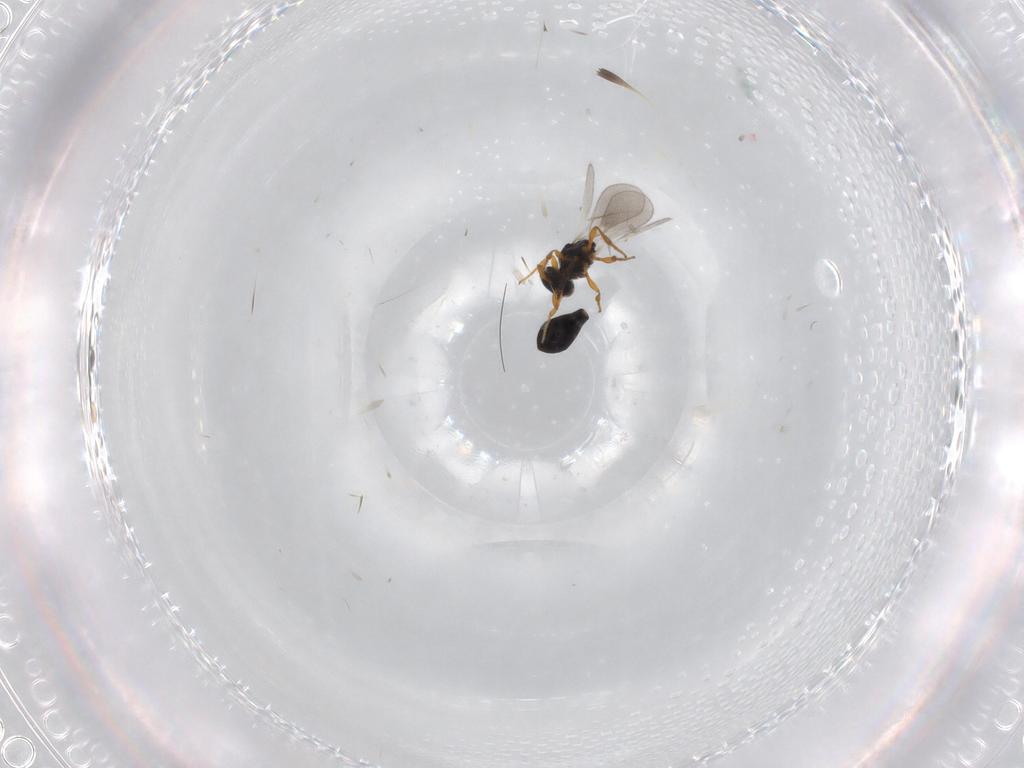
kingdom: Animalia
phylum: Arthropoda
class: Insecta
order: Hymenoptera
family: Platygastridae
